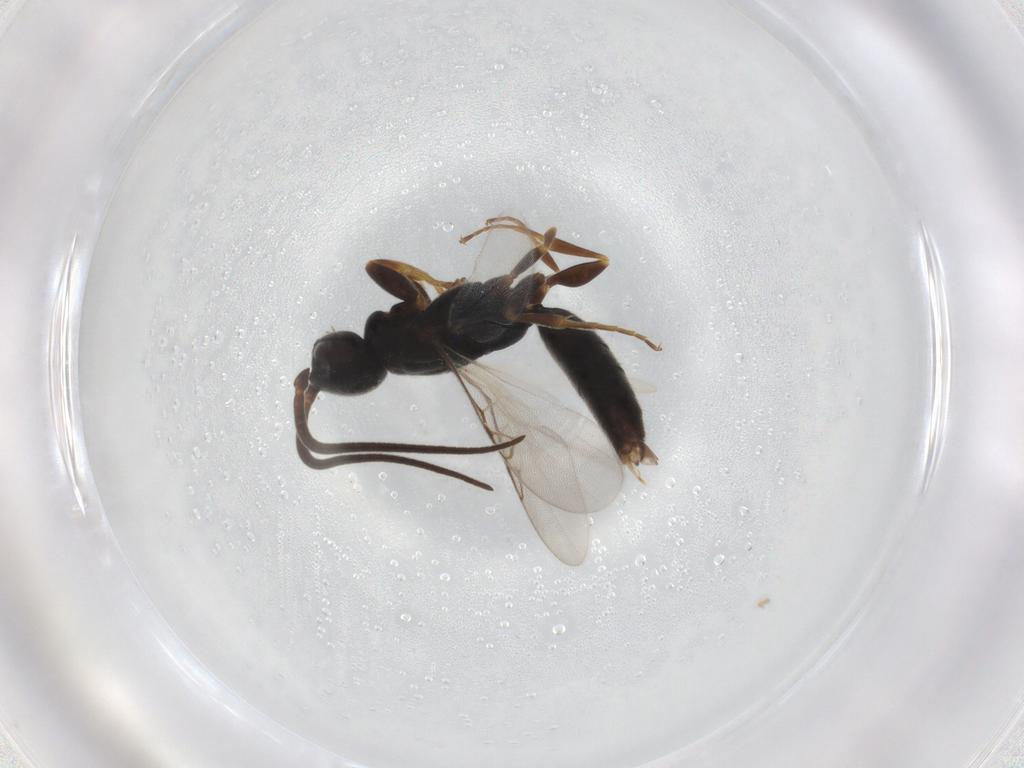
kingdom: Animalia
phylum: Arthropoda
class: Insecta
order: Hymenoptera
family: Sclerogibbidae
